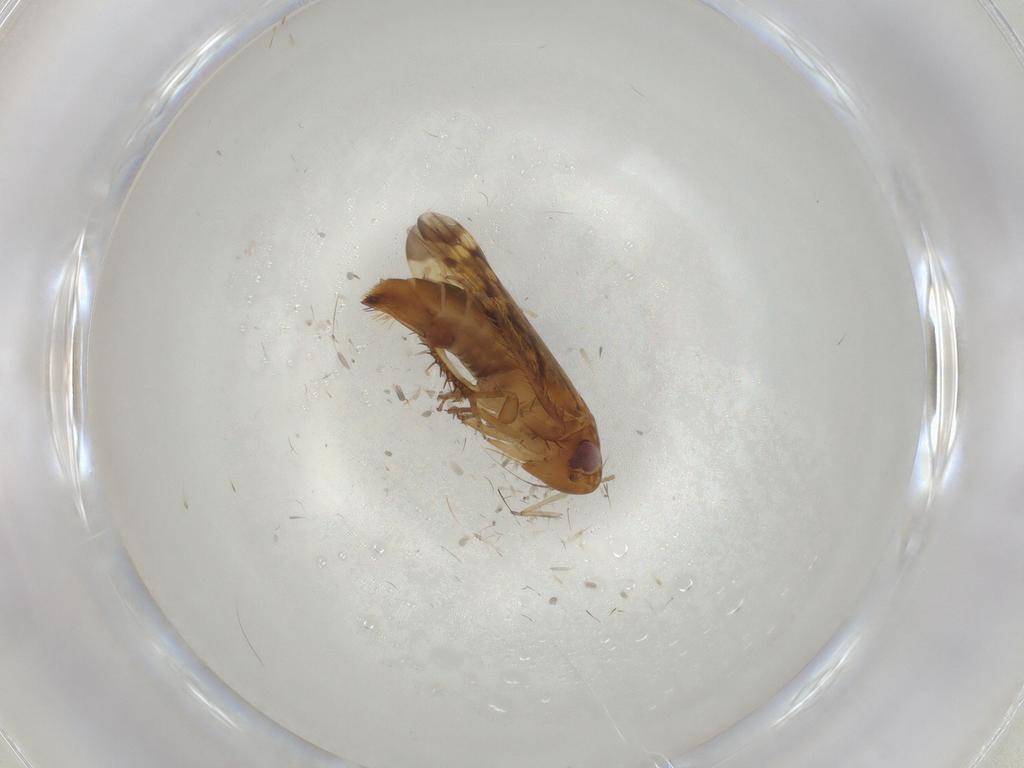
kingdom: Animalia
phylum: Arthropoda
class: Insecta
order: Hemiptera
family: Cicadellidae
